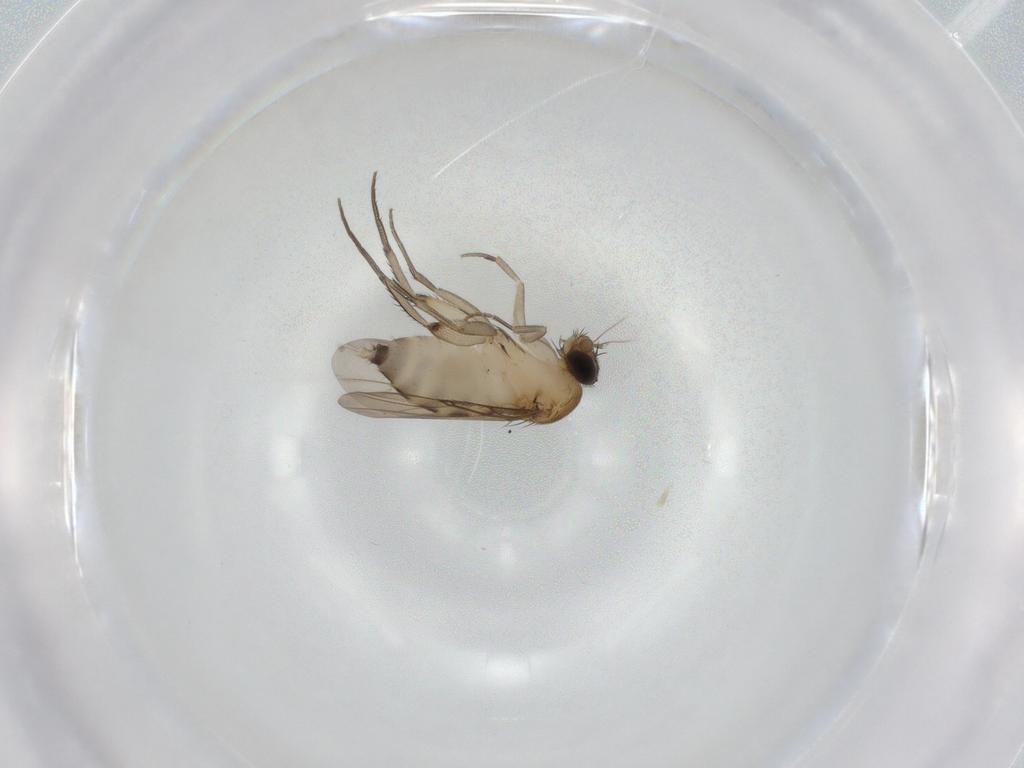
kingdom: Animalia
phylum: Arthropoda
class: Insecta
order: Diptera
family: Phoridae
